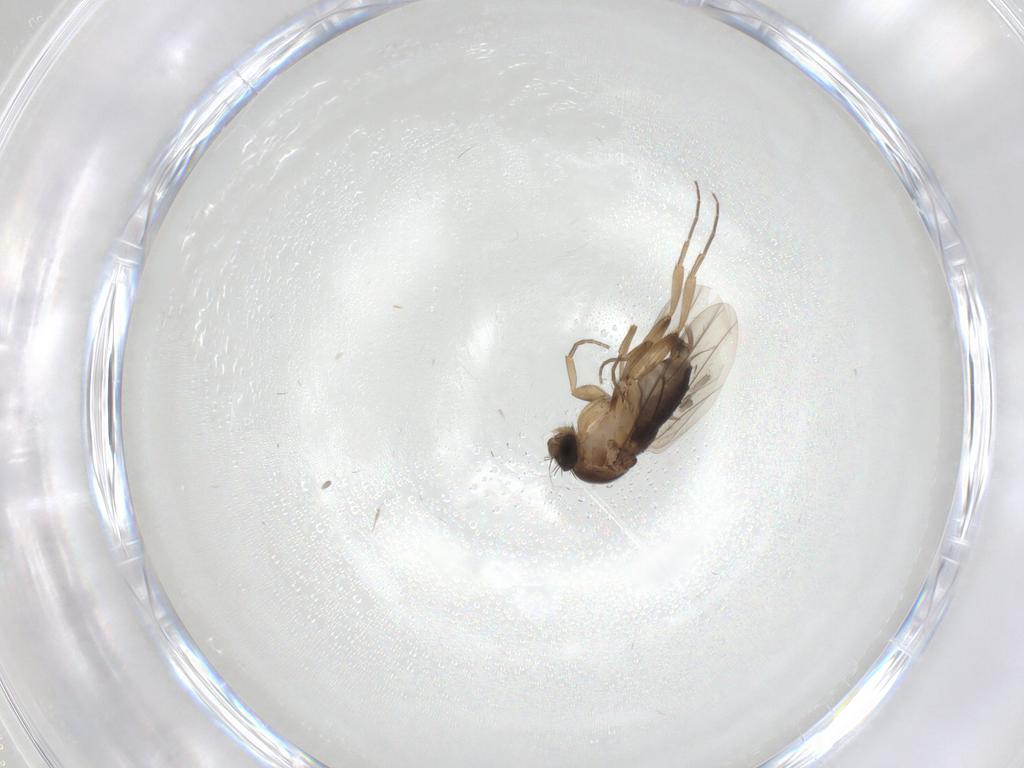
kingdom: Animalia
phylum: Arthropoda
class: Insecta
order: Diptera
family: Phoridae
